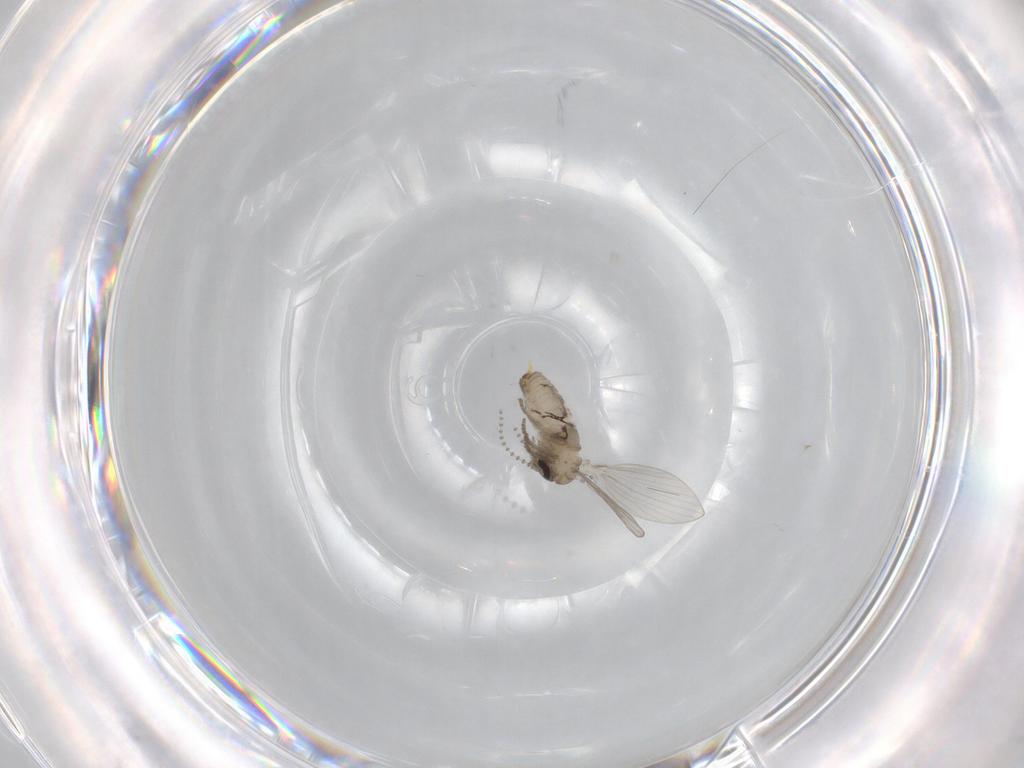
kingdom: Animalia
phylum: Arthropoda
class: Insecta
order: Diptera
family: Psychodidae
